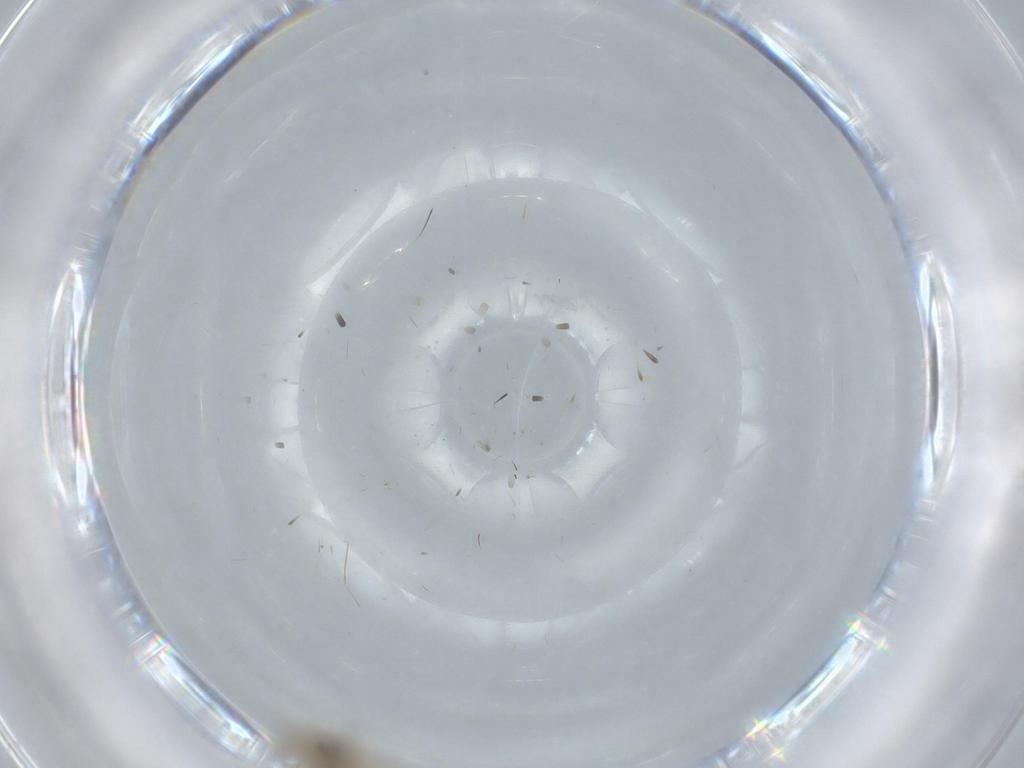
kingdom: Animalia
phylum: Arthropoda
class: Insecta
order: Diptera
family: Cecidomyiidae
